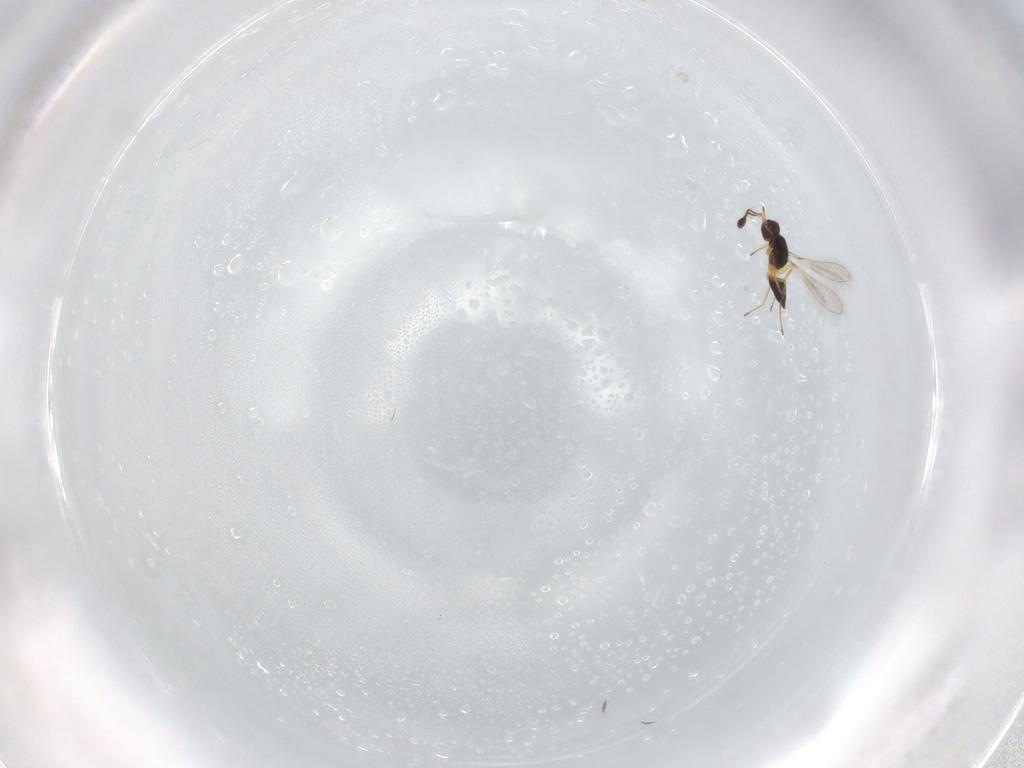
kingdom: Animalia
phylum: Arthropoda
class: Insecta
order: Hymenoptera
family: Mymaridae
